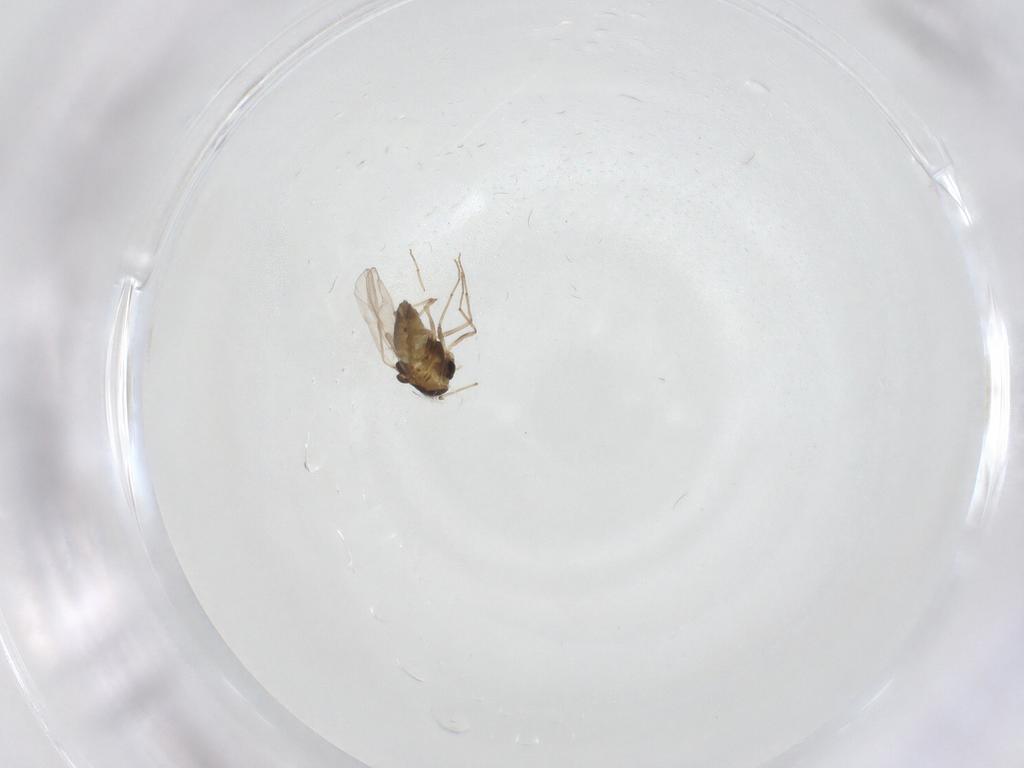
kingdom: Animalia
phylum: Arthropoda
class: Insecta
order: Diptera
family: Chironomidae
